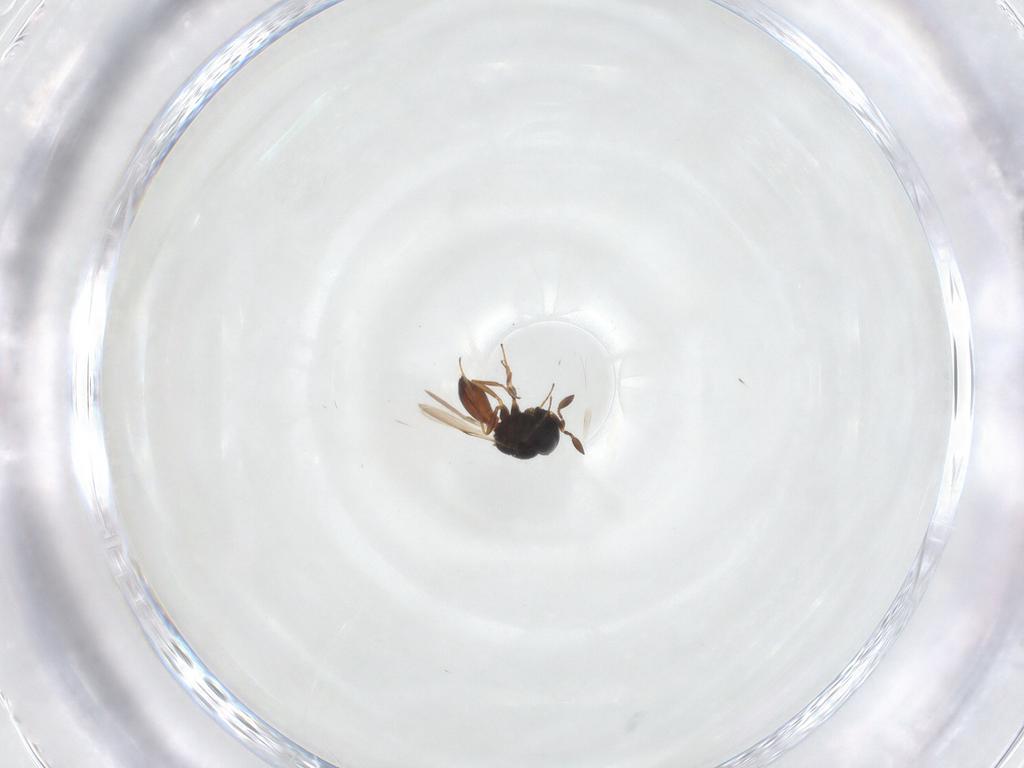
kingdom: Animalia
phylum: Arthropoda
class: Insecta
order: Hymenoptera
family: Scelionidae
